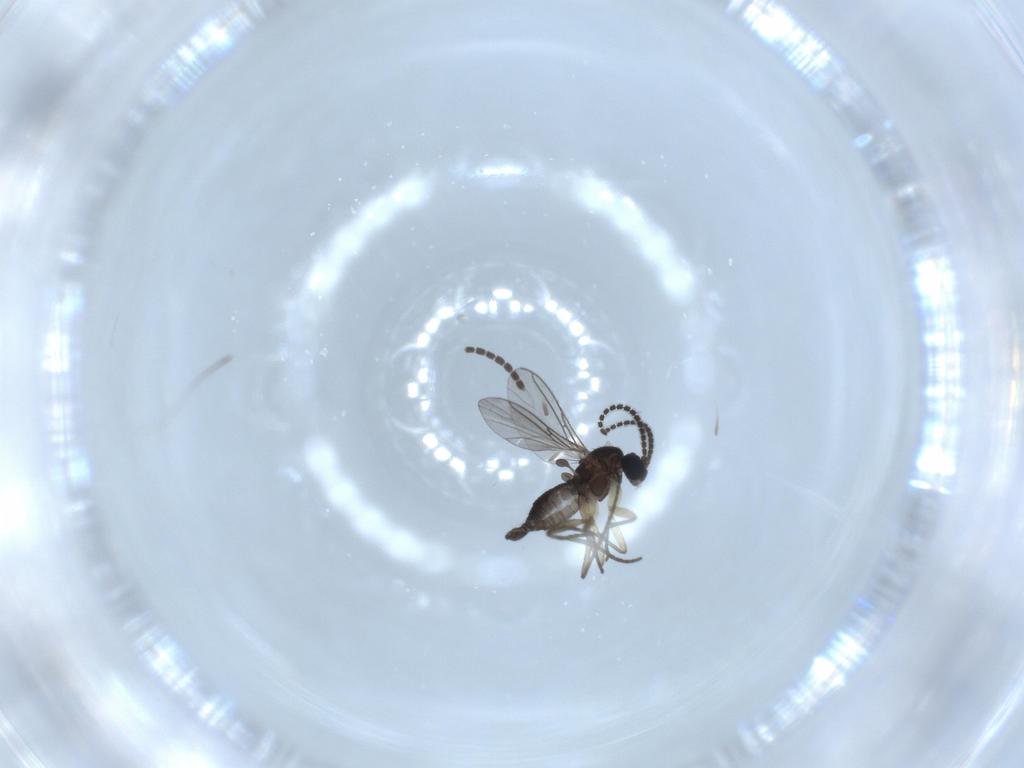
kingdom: Animalia
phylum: Arthropoda
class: Insecta
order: Diptera
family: Sciaridae
